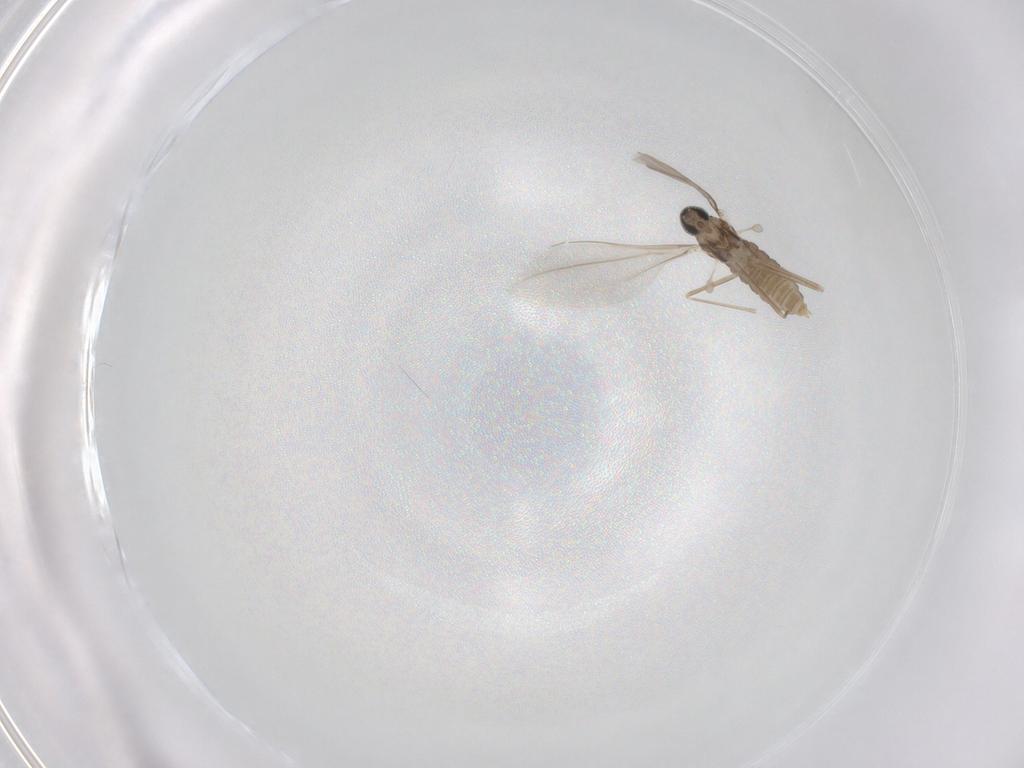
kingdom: Animalia
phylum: Arthropoda
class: Insecta
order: Diptera
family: Cecidomyiidae
